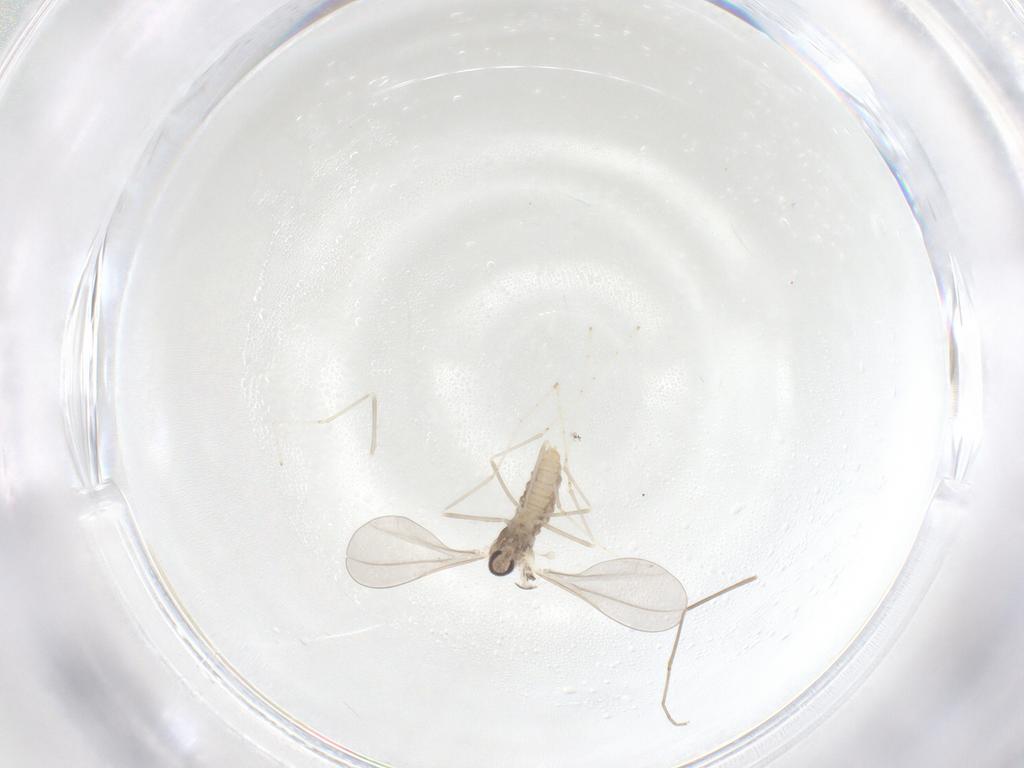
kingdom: Animalia
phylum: Arthropoda
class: Insecta
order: Diptera
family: Cecidomyiidae
